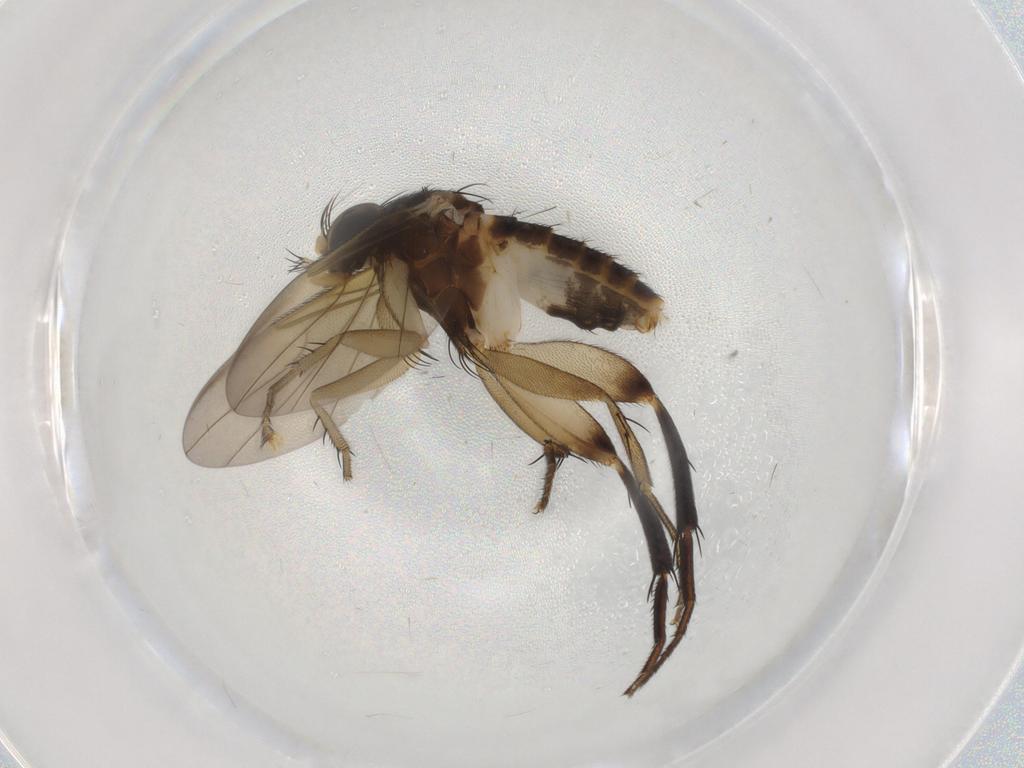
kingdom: Animalia
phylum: Arthropoda
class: Insecta
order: Diptera
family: Phoridae
